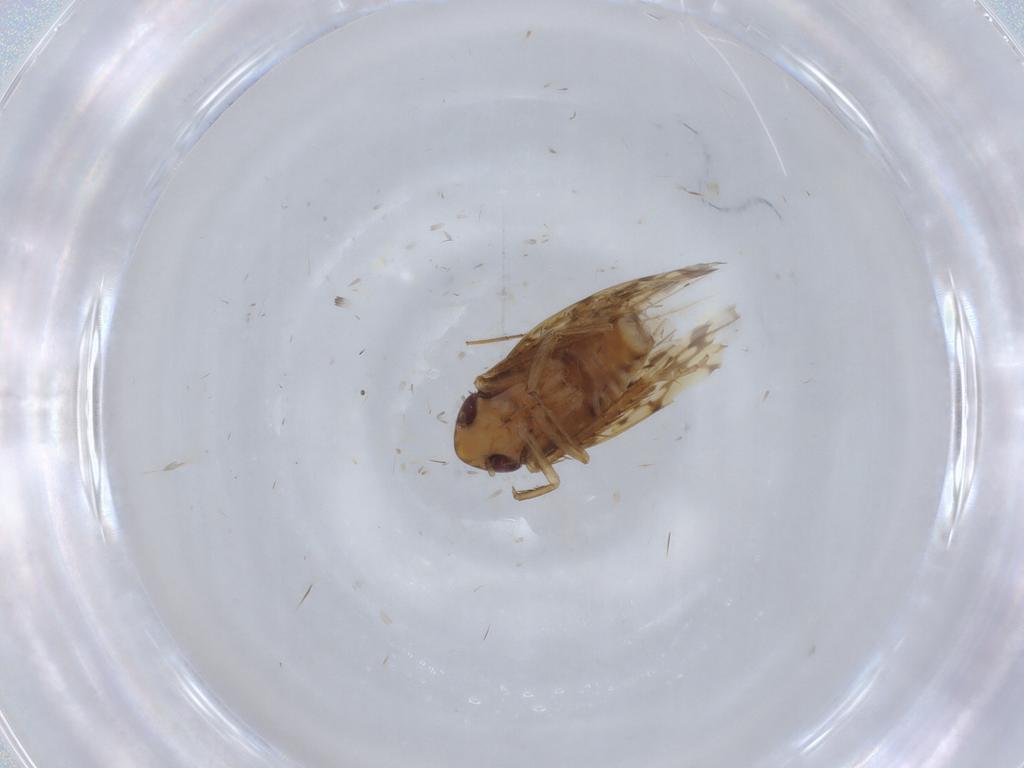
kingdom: Animalia
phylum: Arthropoda
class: Insecta
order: Hemiptera
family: Cicadellidae
